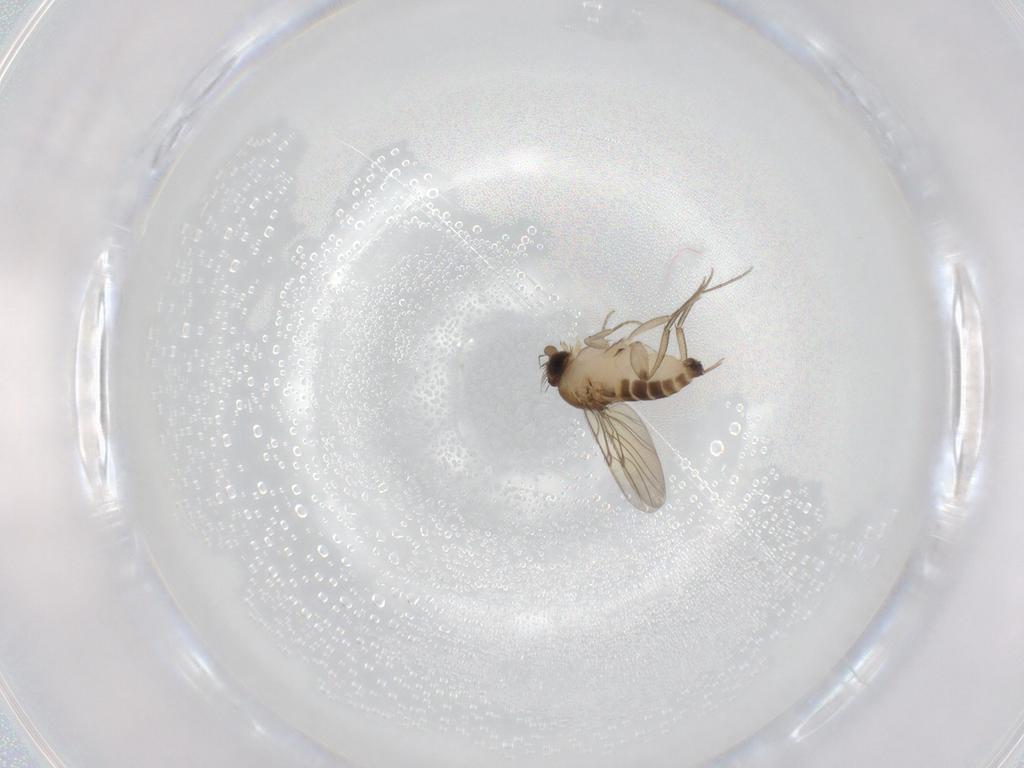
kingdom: Animalia
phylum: Arthropoda
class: Insecta
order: Diptera
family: Phoridae
